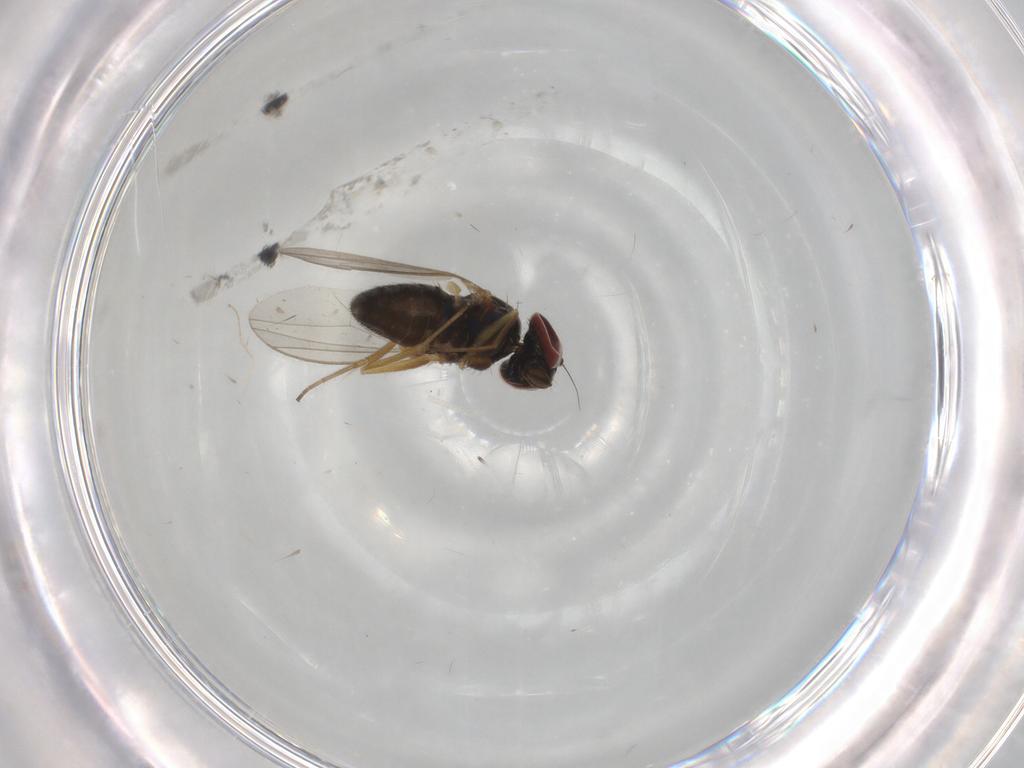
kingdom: Animalia
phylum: Arthropoda
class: Insecta
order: Diptera
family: Dolichopodidae
